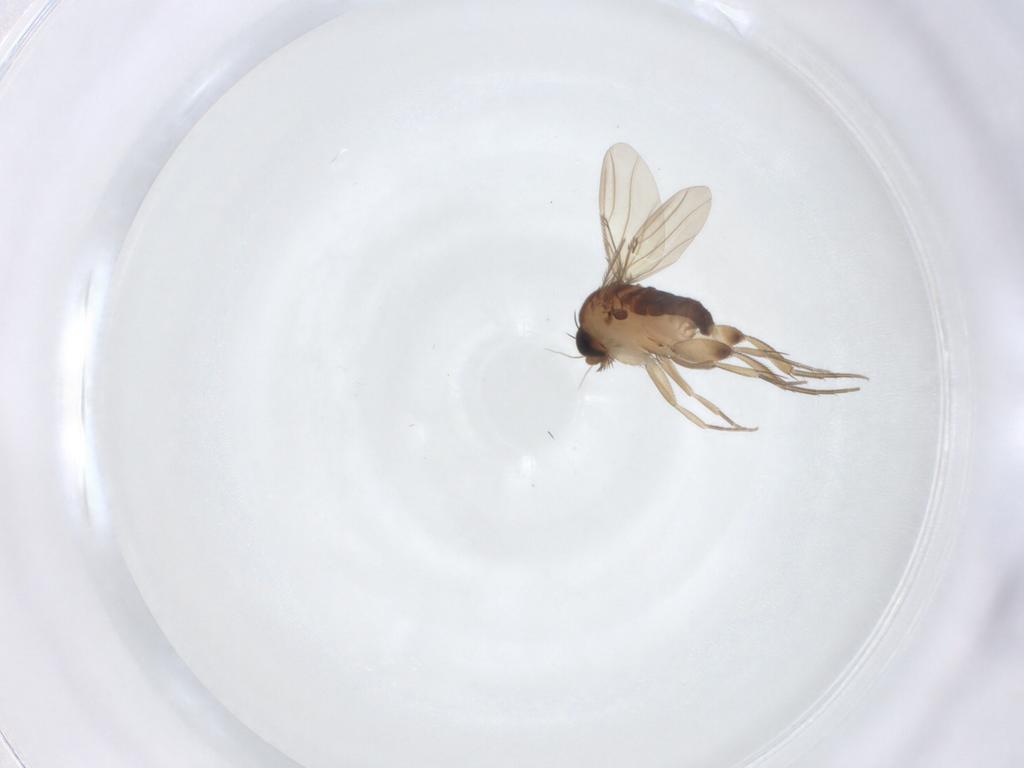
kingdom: Animalia
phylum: Arthropoda
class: Insecta
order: Diptera
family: Phoridae
